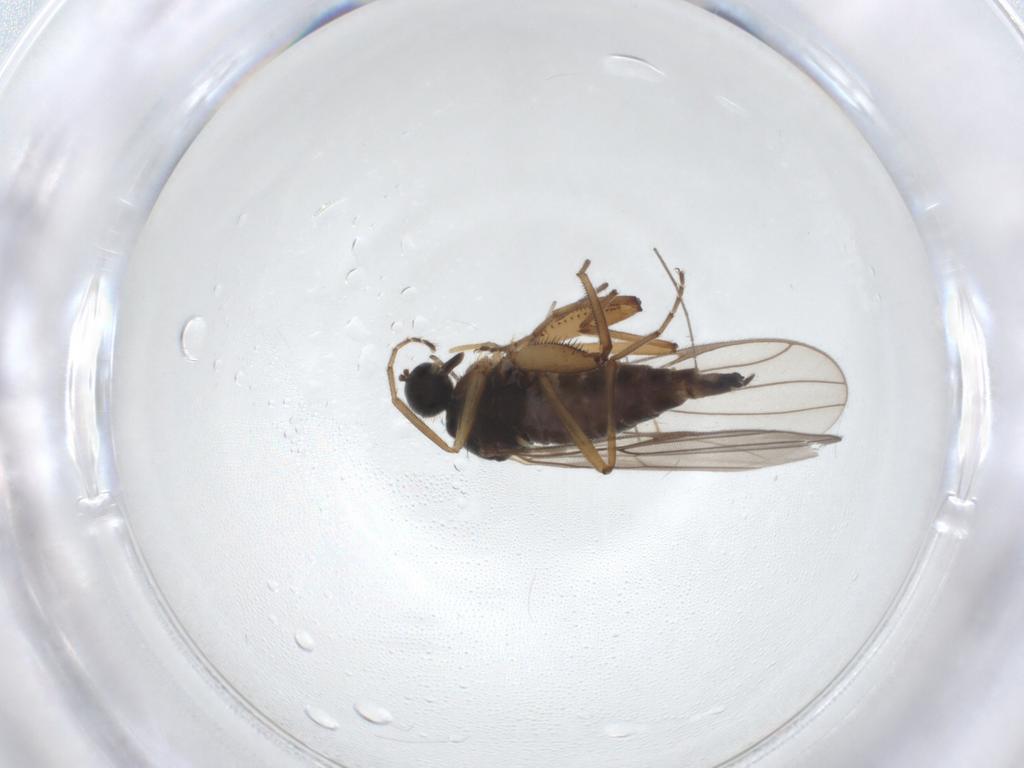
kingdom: Animalia
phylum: Arthropoda
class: Insecta
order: Diptera
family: Hybotidae
